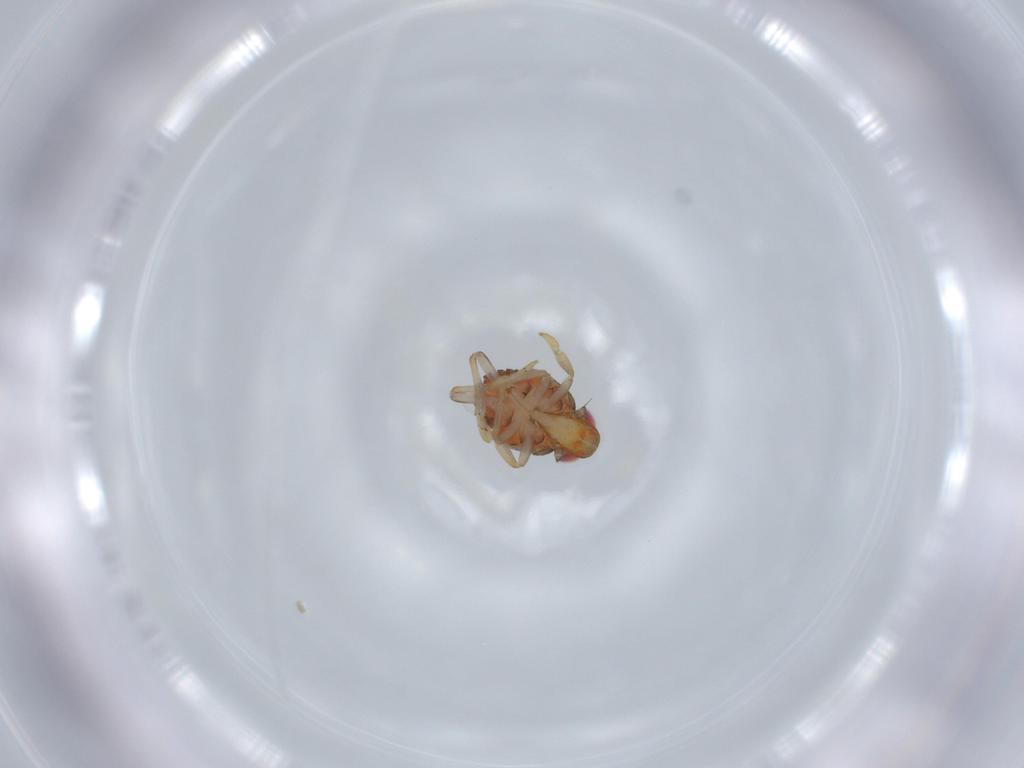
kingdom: Animalia
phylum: Arthropoda
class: Insecta
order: Hemiptera
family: Issidae
